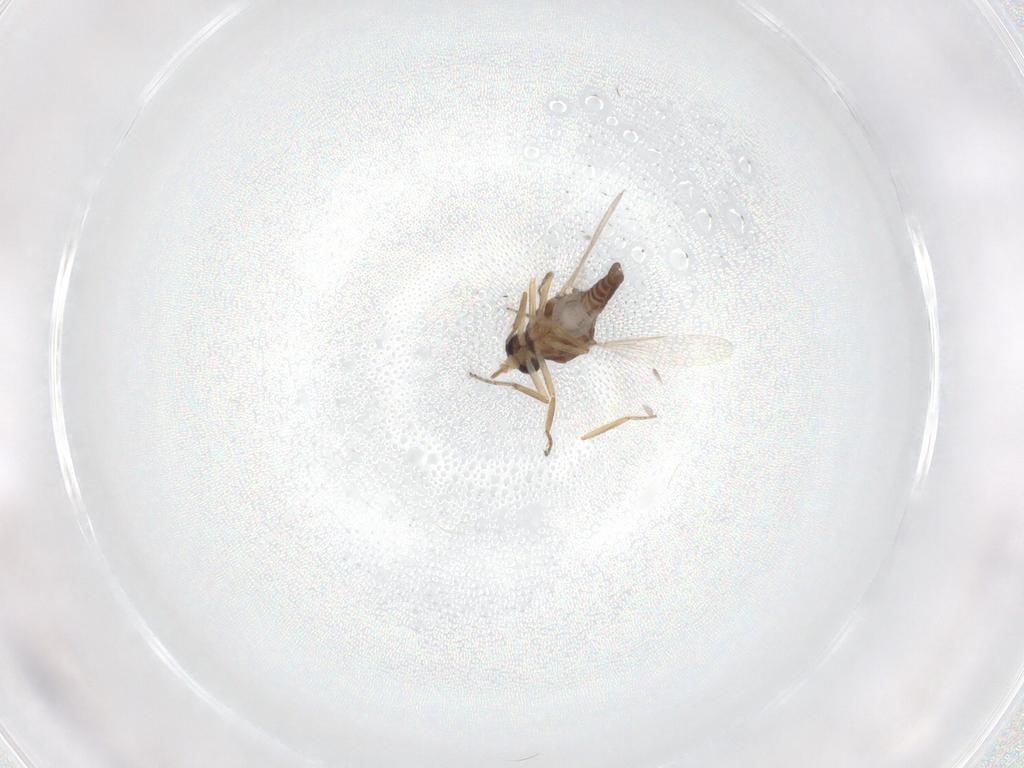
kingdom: Animalia
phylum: Arthropoda
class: Insecta
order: Diptera
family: Ceratopogonidae
